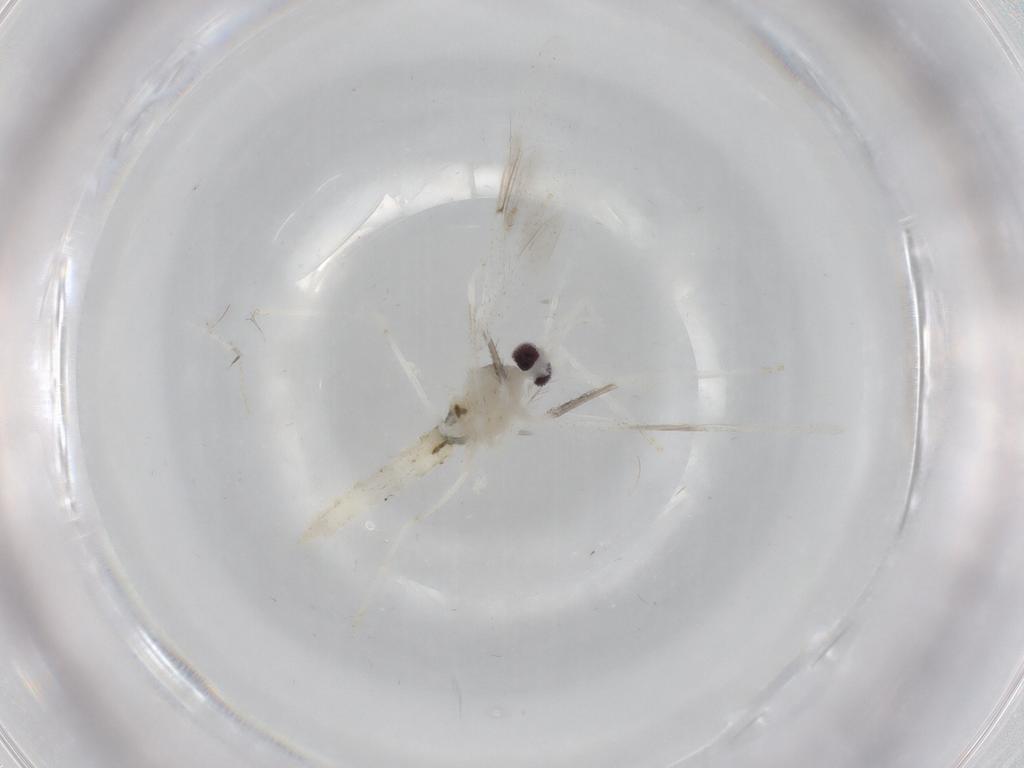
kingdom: Animalia
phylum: Arthropoda
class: Insecta
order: Diptera
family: Cecidomyiidae
